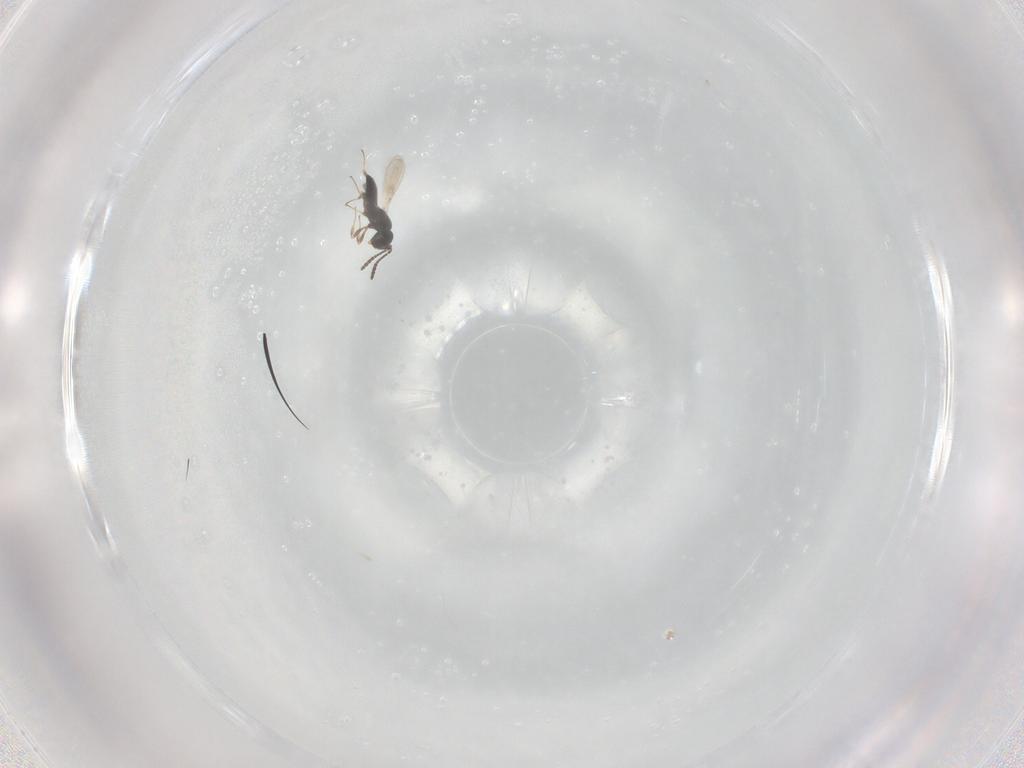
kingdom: Animalia
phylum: Arthropoda
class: Insecta
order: Hymenoptera
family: Scelionidae
